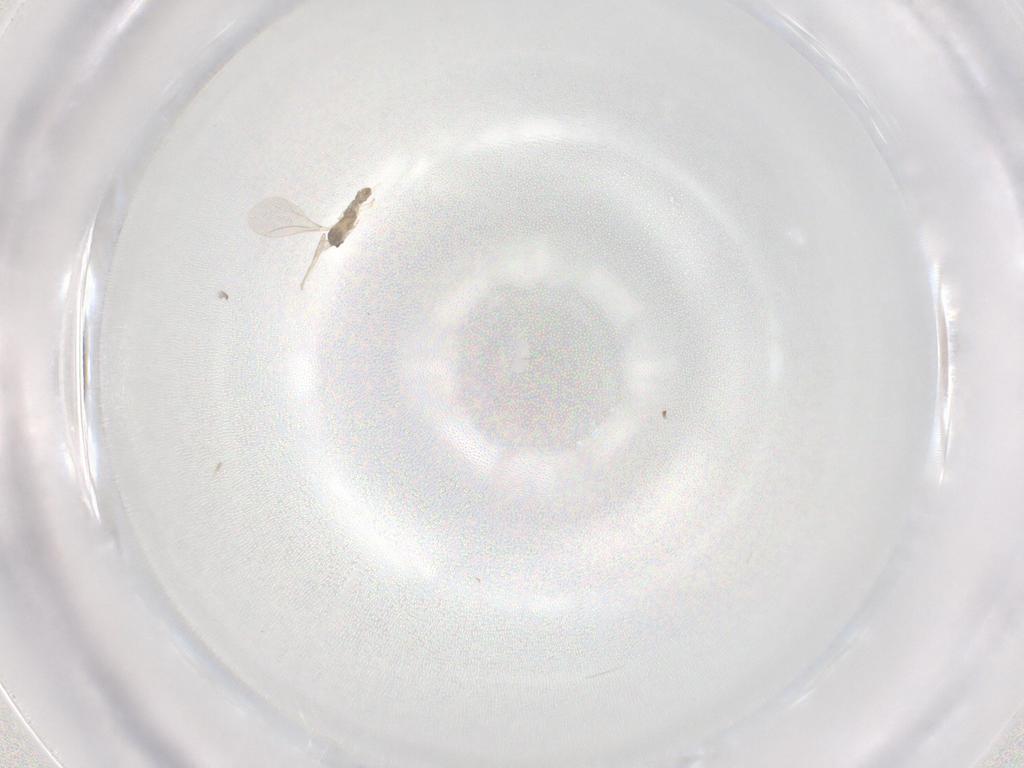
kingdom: Animalia
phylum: Arthropoda
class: Insecta
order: Diptera
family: Cecidomyiidae
